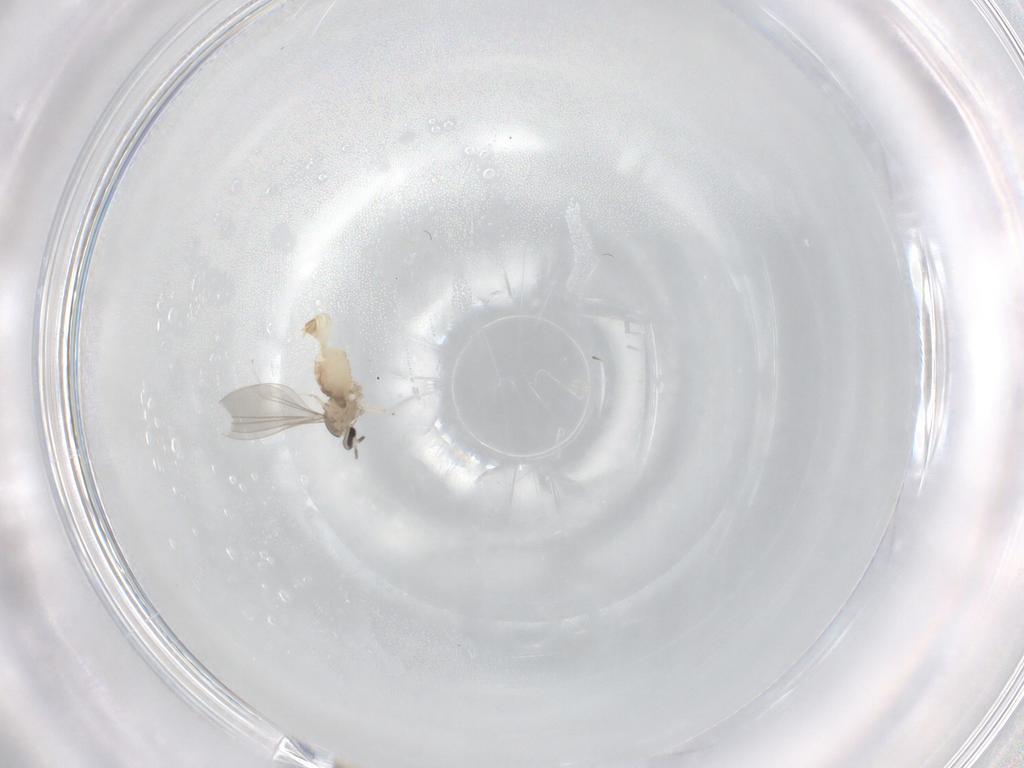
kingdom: Animalia
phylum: Arthropoda
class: Insecta
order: Diptera
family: Cecidomyiidae
